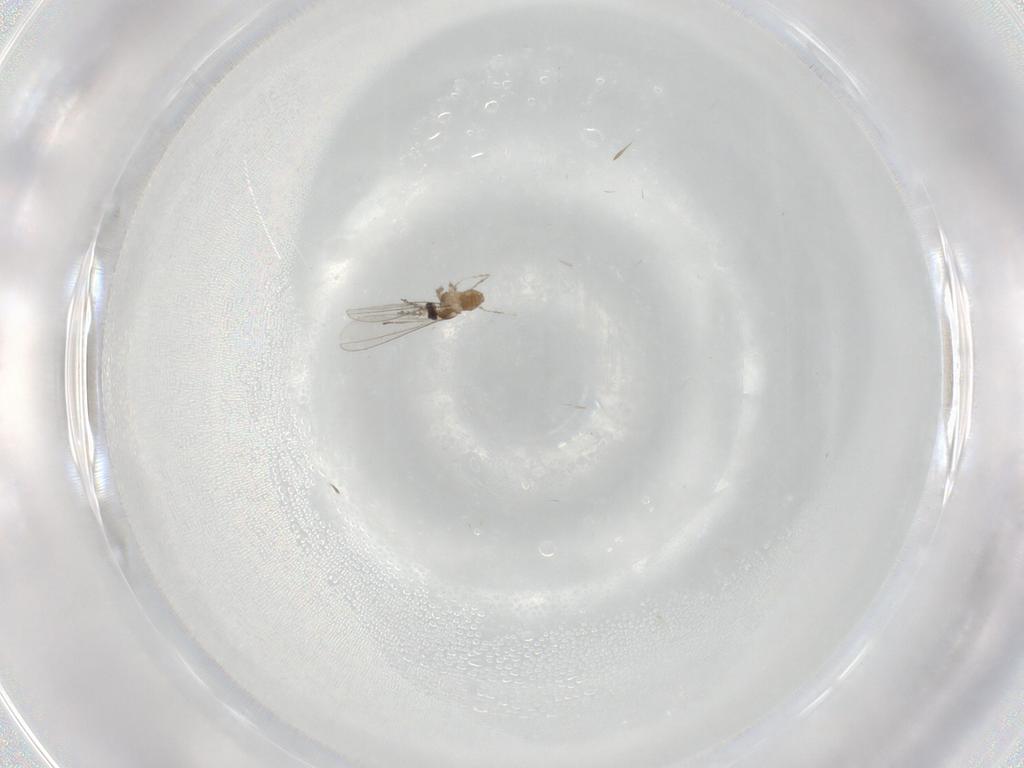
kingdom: Animalia
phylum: Arthropoda
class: Insecta
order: Diptera
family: Cecidomyiidae
